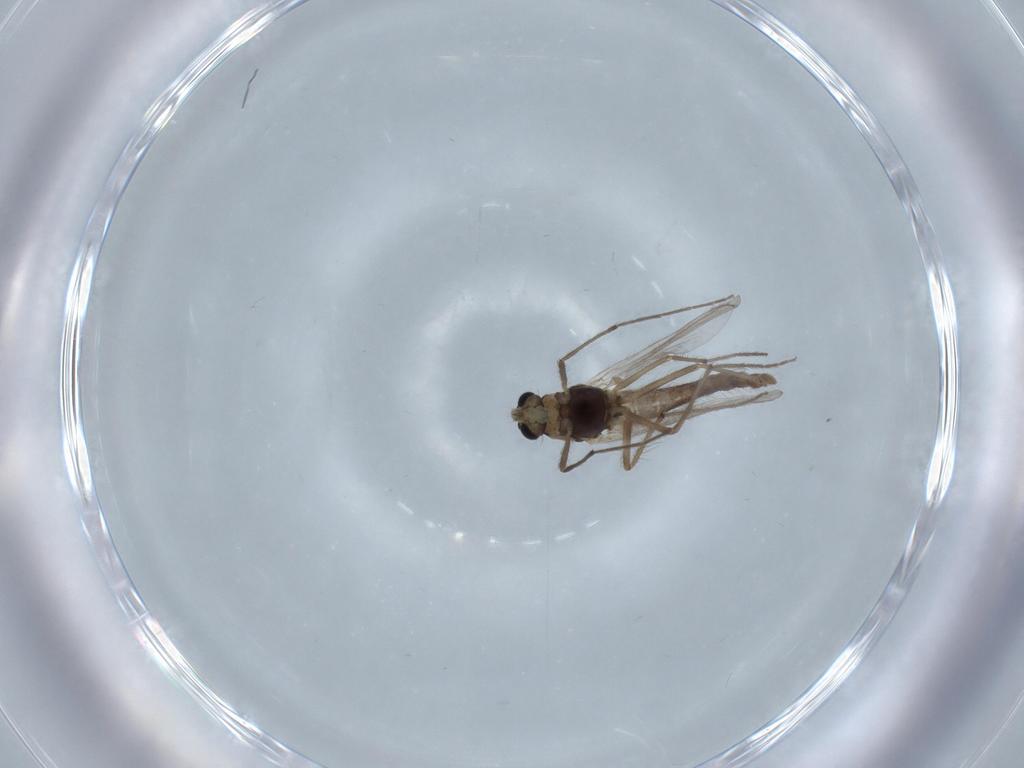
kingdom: Animalia
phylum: Arthropoda
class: Insecta
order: Diptera
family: Chironomidae
